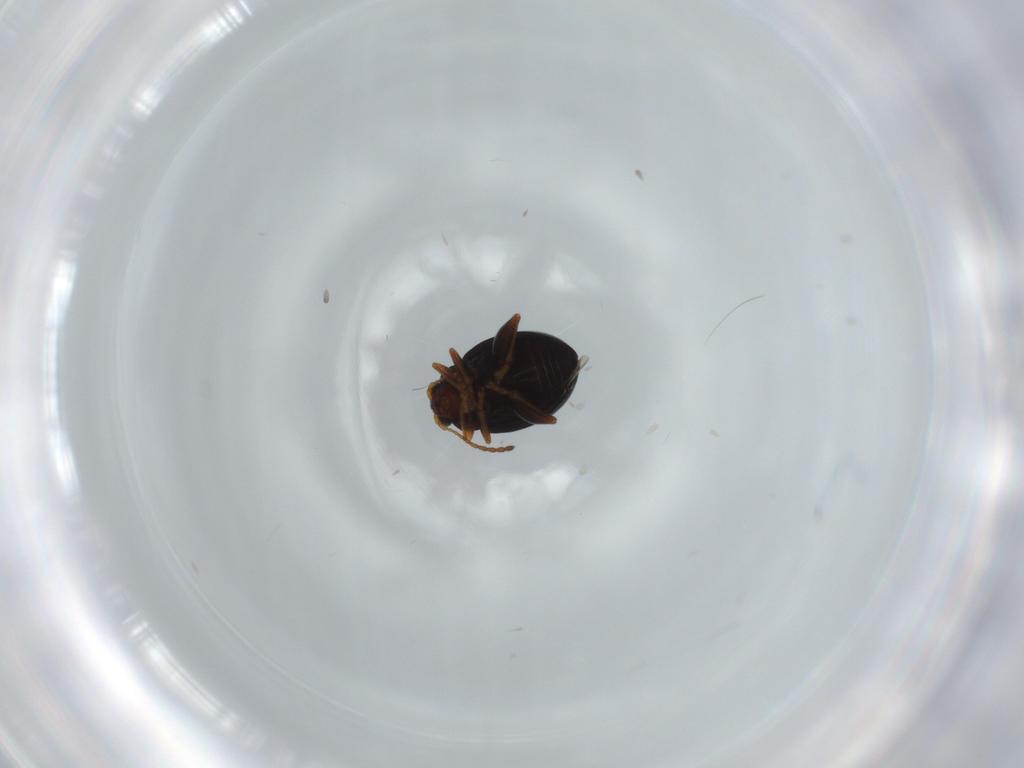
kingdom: Animalia
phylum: Arthropoda
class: Insecta
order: Coleoptera
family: Chrysomelidae
